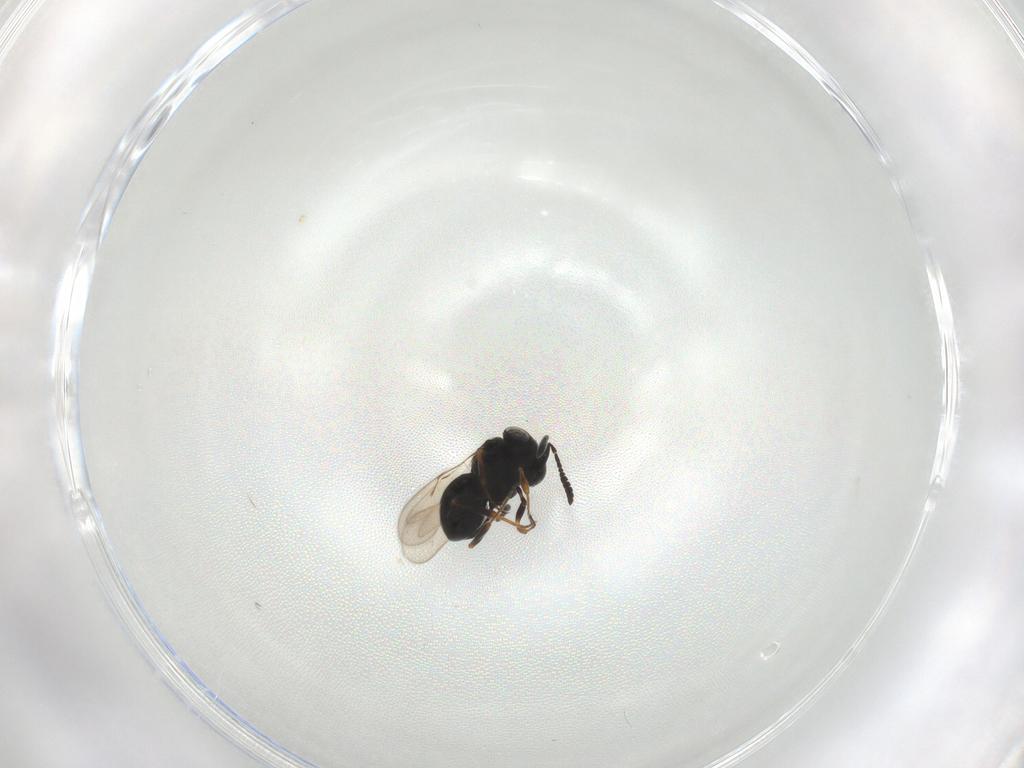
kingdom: Animalia
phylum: Arthropoda
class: Insecta
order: Hymenoptera
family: Scelionidae
